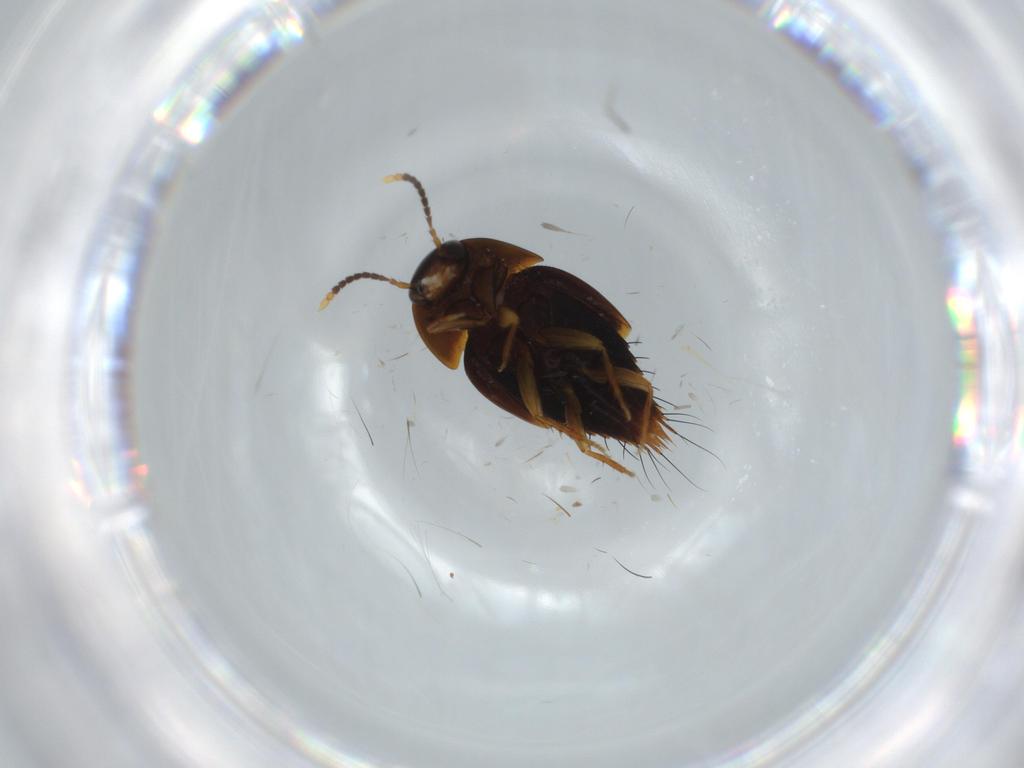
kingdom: Animalia
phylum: Arthropoda
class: Insecta
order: Coleoptera
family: Staphylinidae
